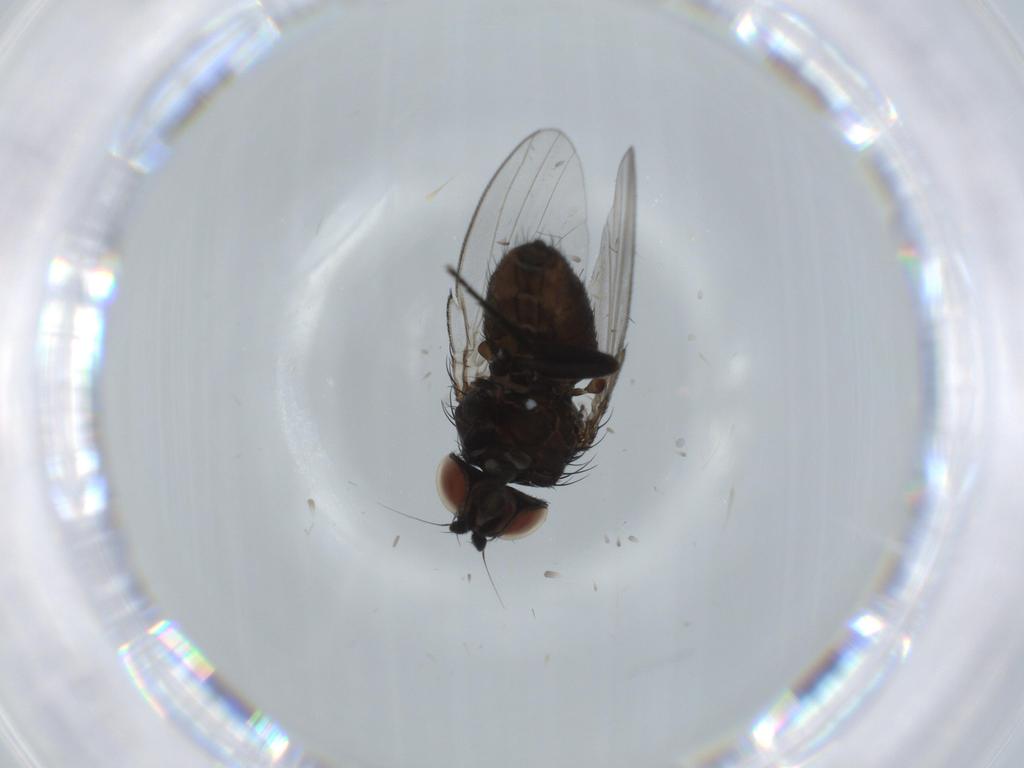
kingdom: Animalia
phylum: Arthropoda
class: Insecta
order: Diptera
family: Sciaridae
